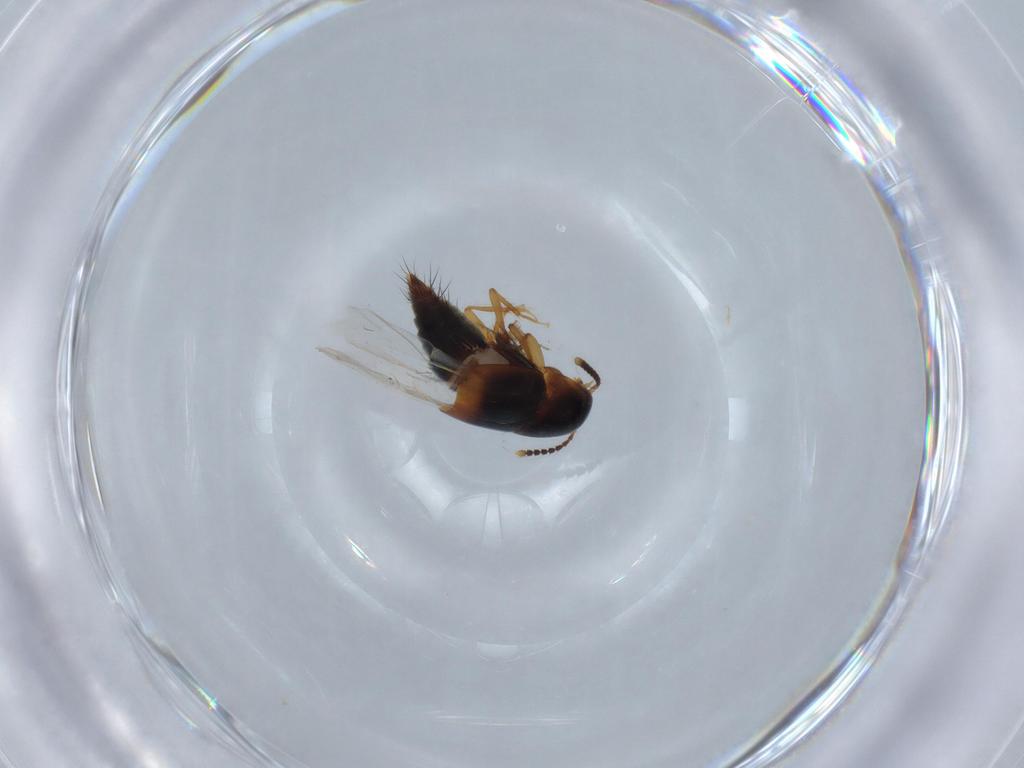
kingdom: Animalia
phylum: Arthropoda
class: Insecta
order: Coleoptera
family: Staphylinidae
